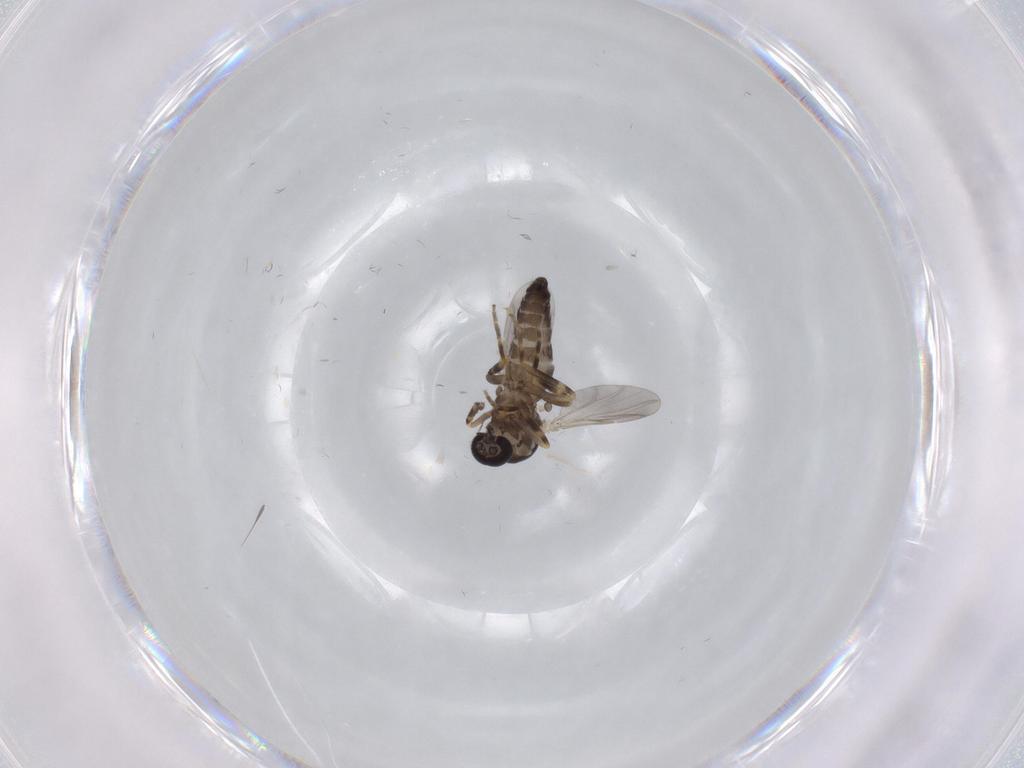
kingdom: Animalia
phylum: Arthropoda
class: Insecta
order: Diptera
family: Ceratopogonidae
